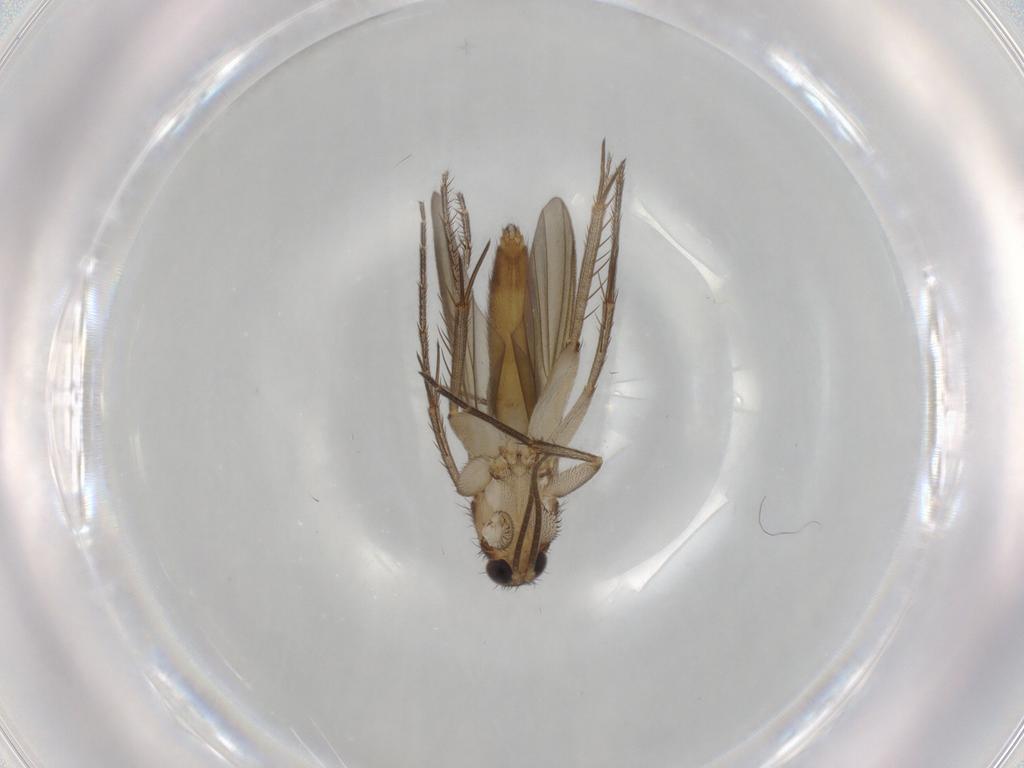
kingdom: Animalia
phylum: Arthropoda
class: Insecta
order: Diptera
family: Mycetophilidae
